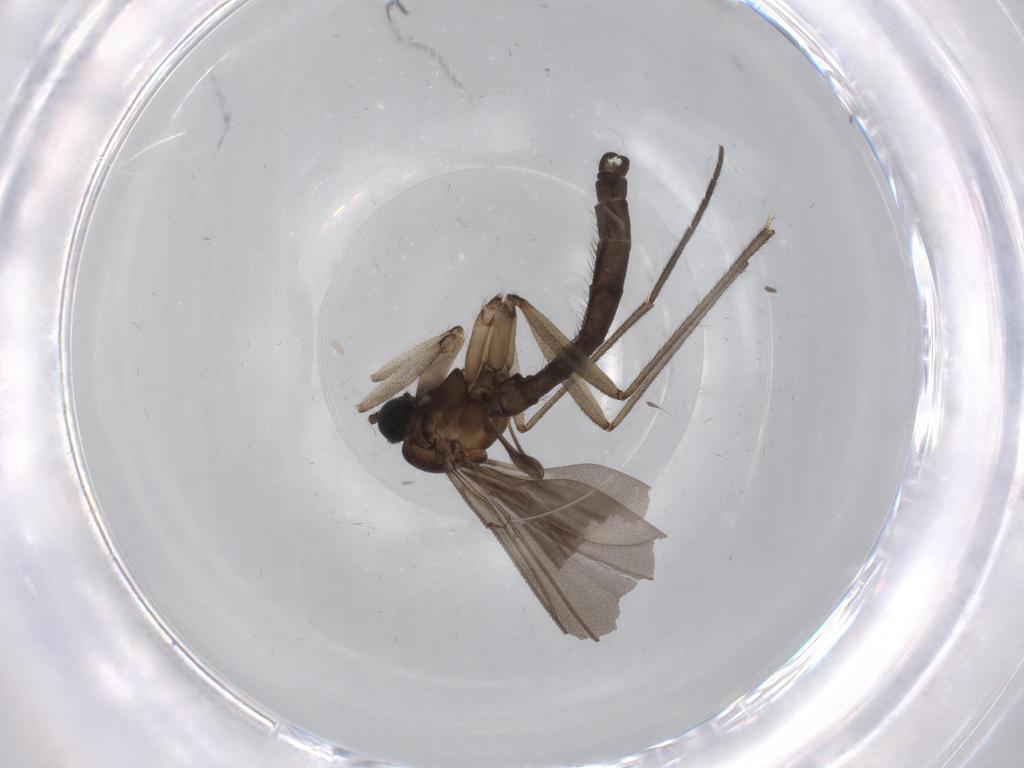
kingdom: Animalia
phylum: Arthropoda
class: Insecta
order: Diptera
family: Sciaridae
